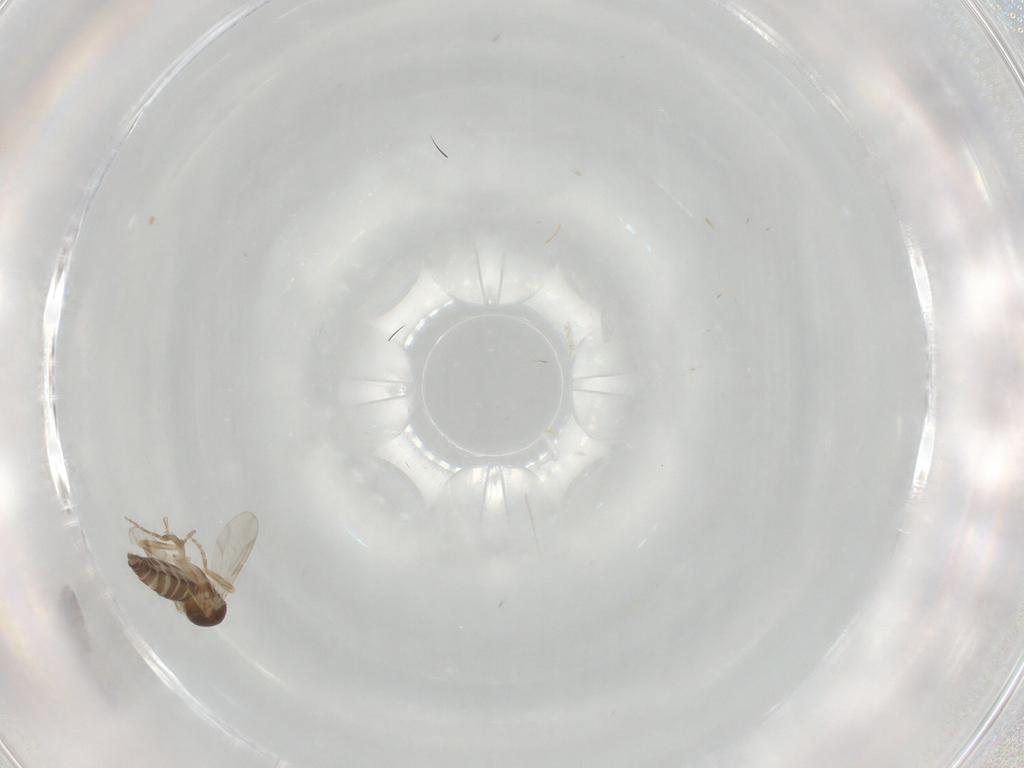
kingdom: Animalia
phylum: Arthropoda
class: Insecta
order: Diptera
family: Ceratopogonidae
